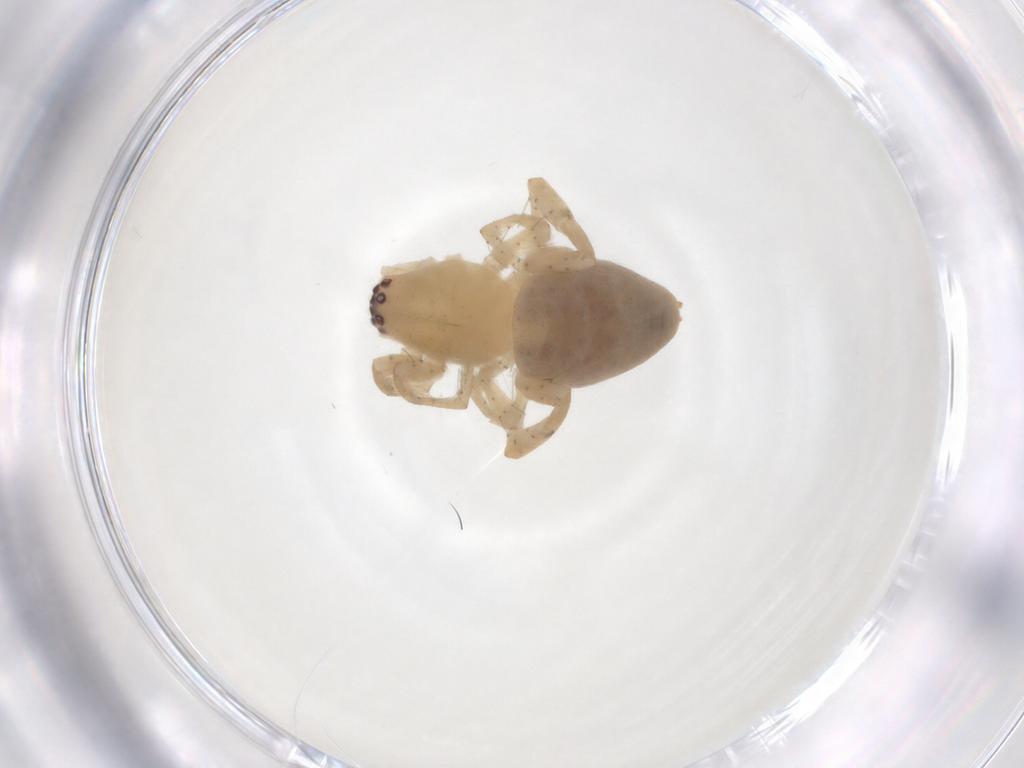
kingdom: Animalia
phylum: Arthropoda
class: Arachnida
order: Araneae
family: Clubionidae
